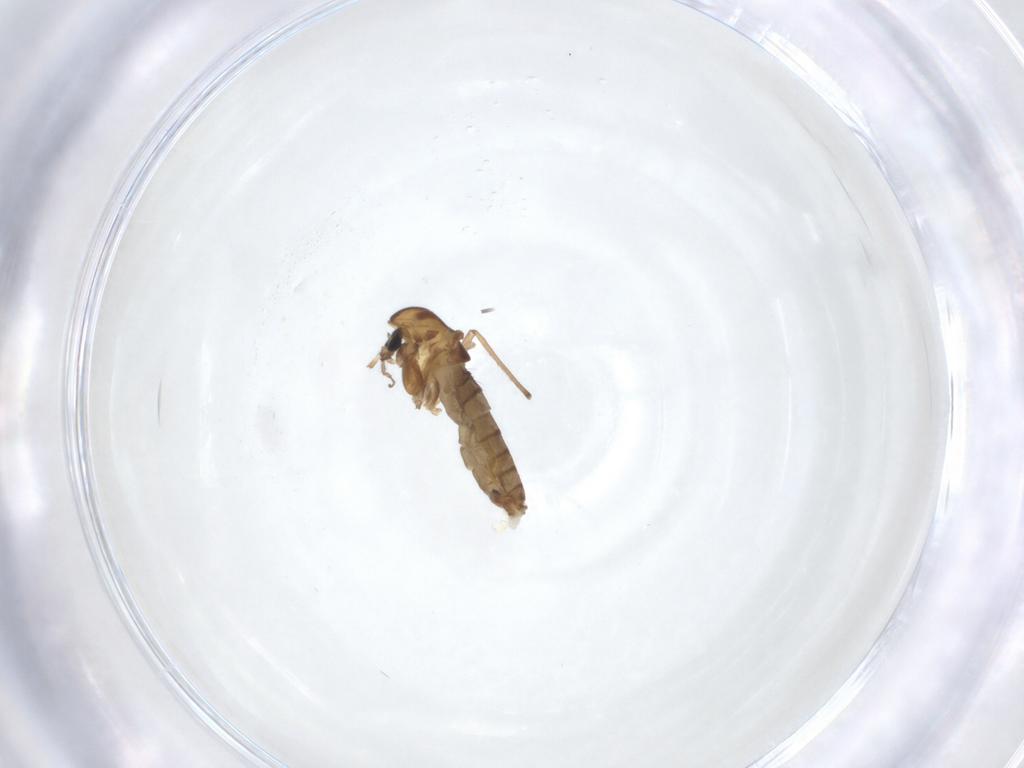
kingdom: Animalia
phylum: Arthropoda
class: Insecta
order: Diptera
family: Chironomidae
